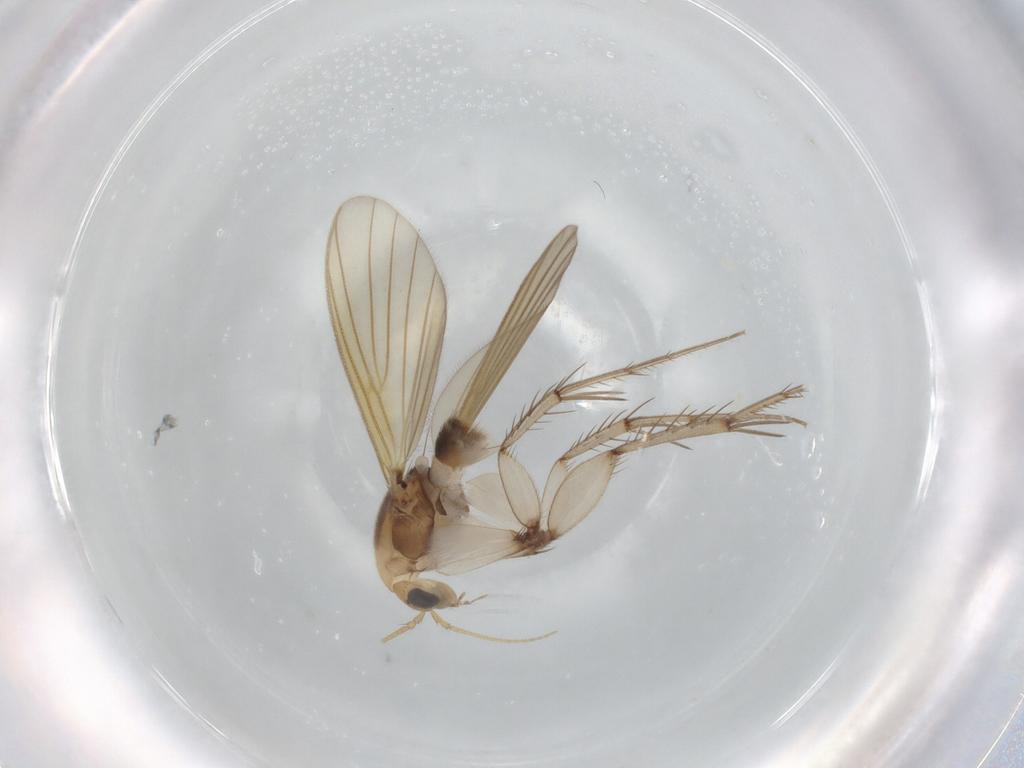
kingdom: Animalia
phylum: Arthropoda
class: Insecta
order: Diptera
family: Mycetophilidae
